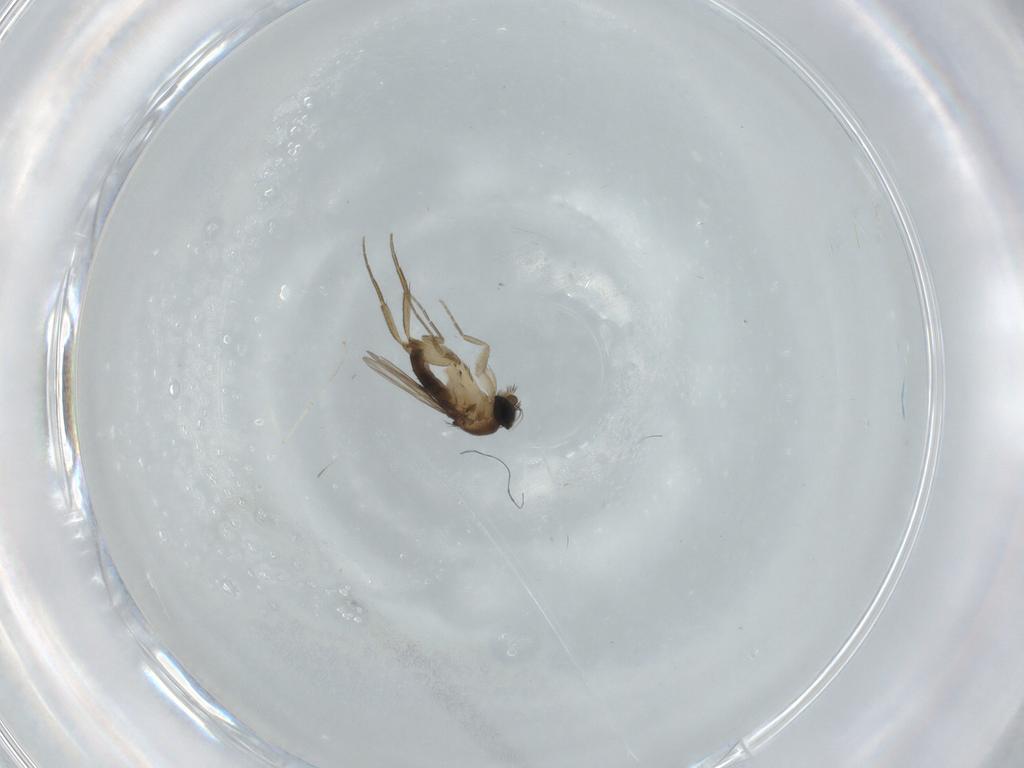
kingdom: Animalia
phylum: Arthropoda
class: Insecta
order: Diptera
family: Phoridae
